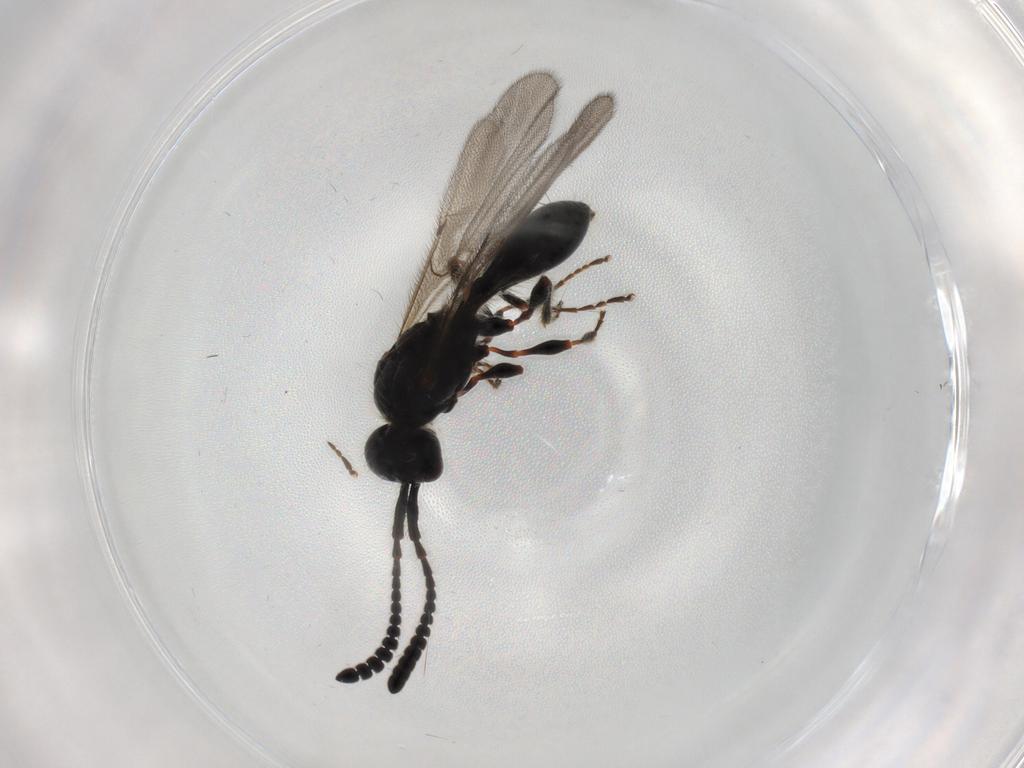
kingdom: Animalia
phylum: Arthropoda
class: Insecta
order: Hymenoptera
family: Diapriidae
